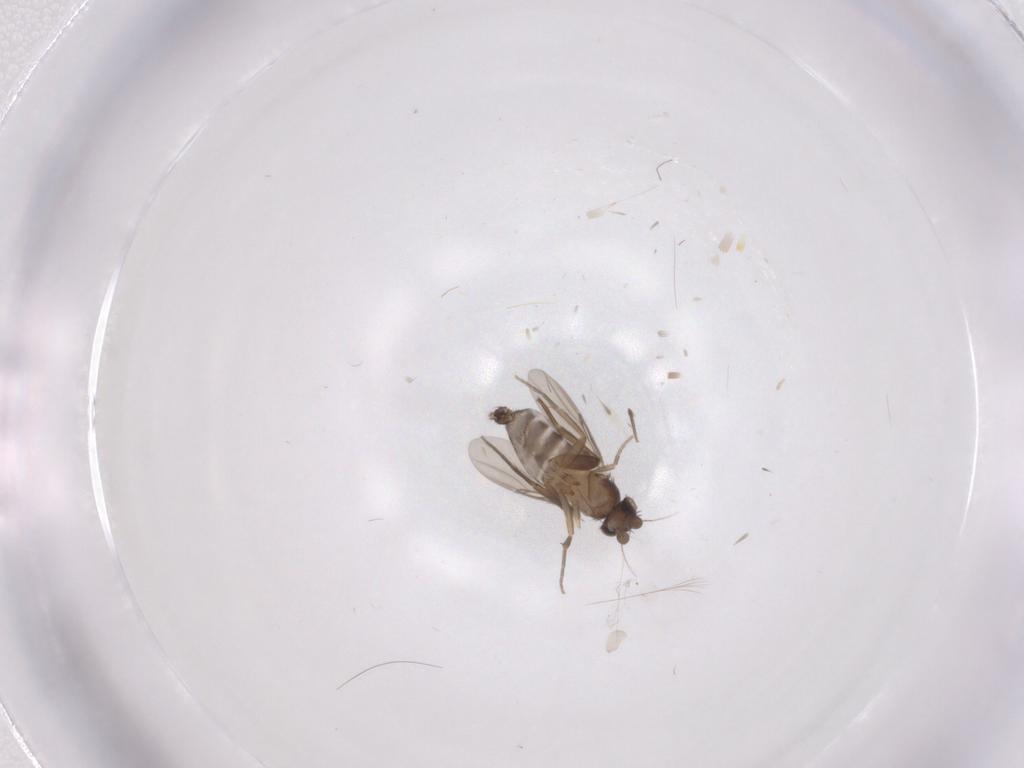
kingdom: Animalia
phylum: Arthropoda
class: Insecta
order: Diptera
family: Phoridae
